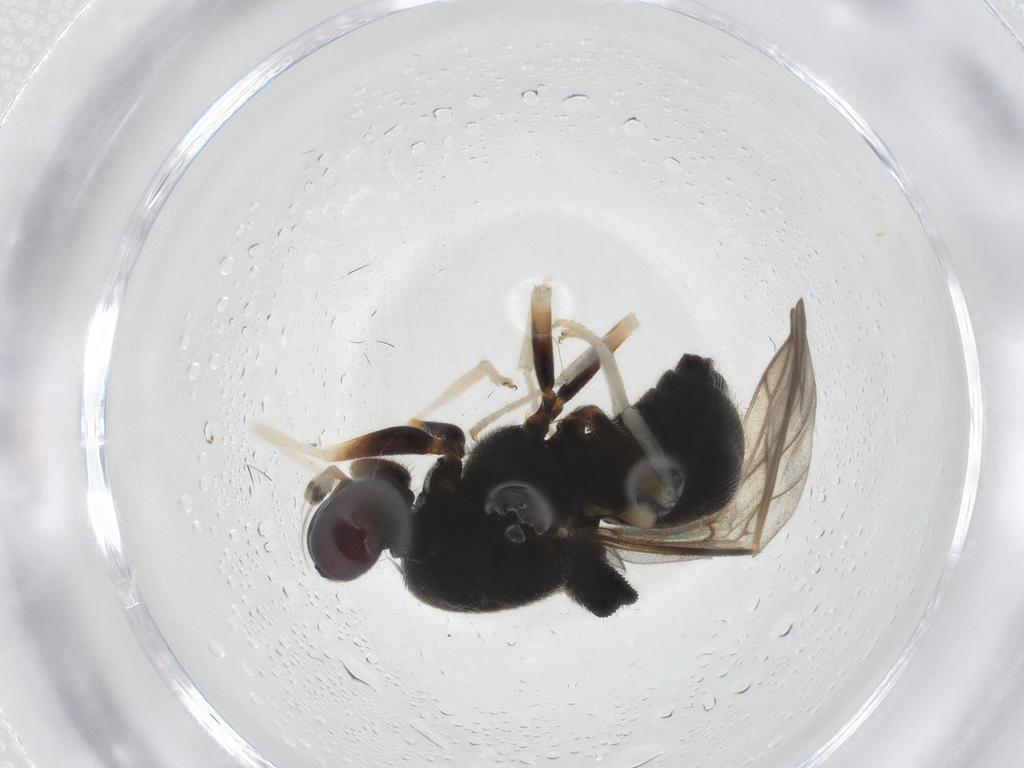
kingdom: Animalia
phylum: Arthropoda
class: Insecta
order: Diptera
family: Stratiomyidae
